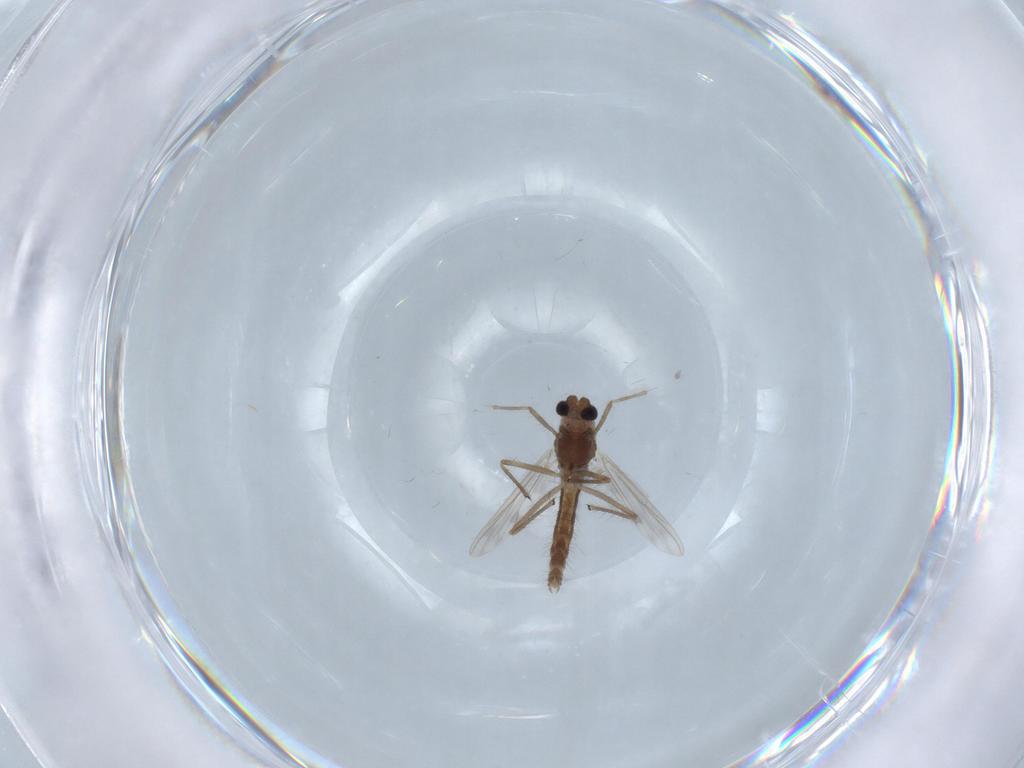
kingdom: Animalia
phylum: Arthropoda
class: Insecta
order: Diptera
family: Chironomidae
